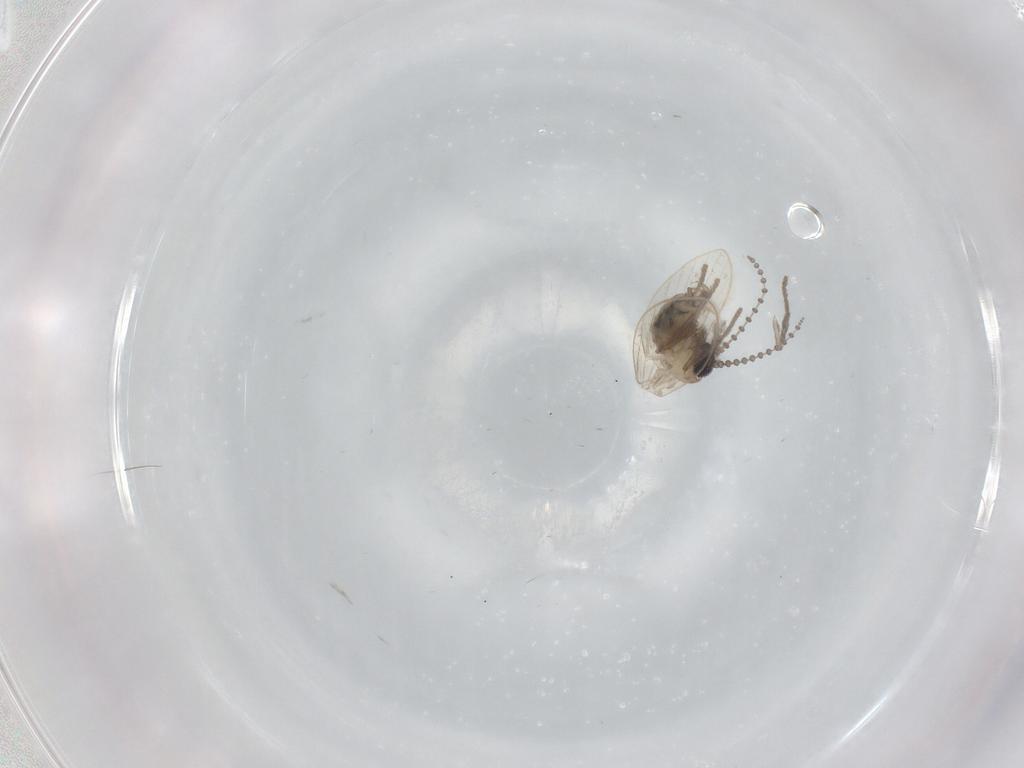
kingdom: Animalia
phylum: Arthropoda
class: Insecta
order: Diptera
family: Psychodidae
